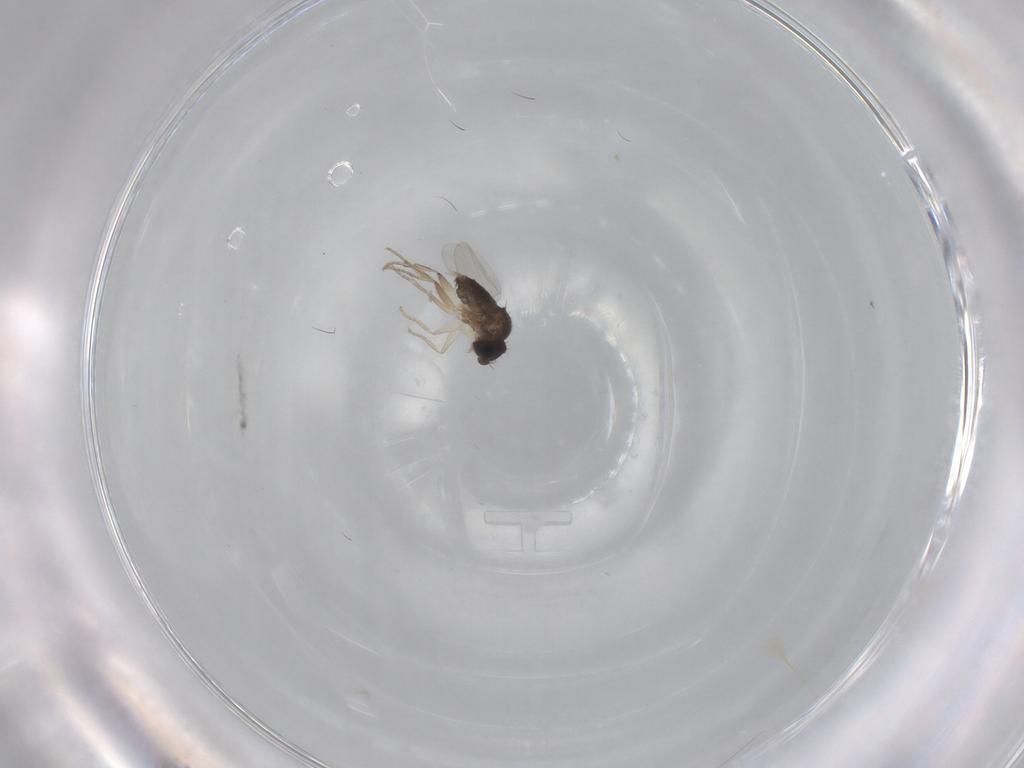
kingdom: Animalia
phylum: Arthropoda
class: Insecta
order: Diptera
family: Phoridae
